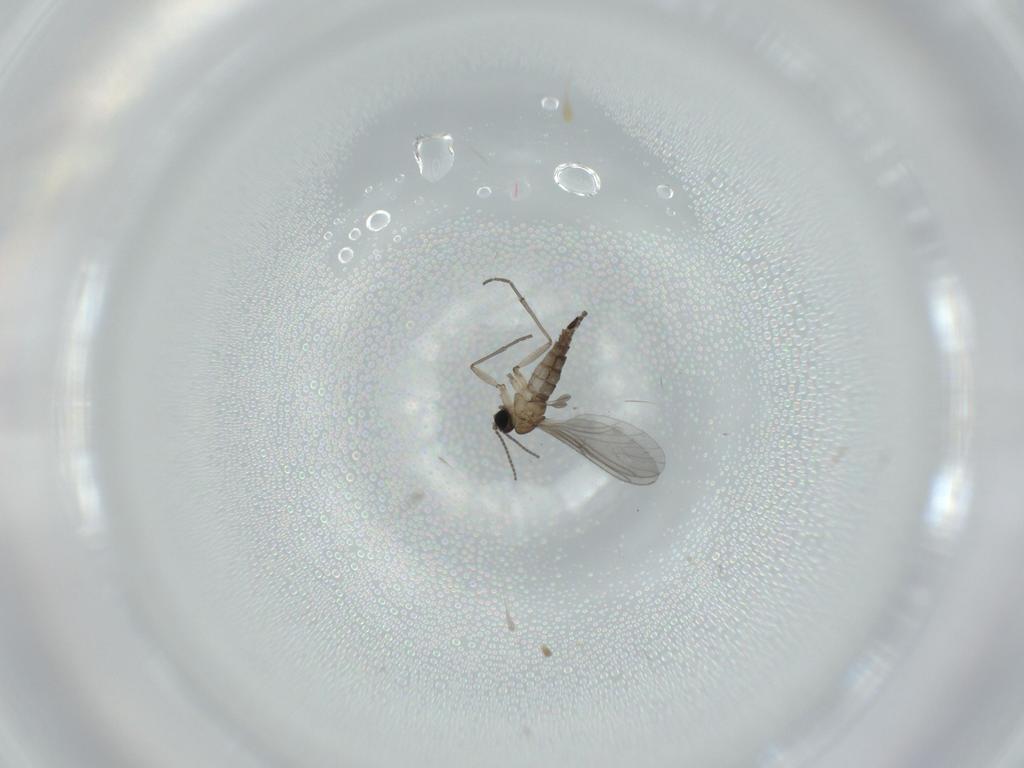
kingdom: Animalia
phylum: Arthropoda
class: Insecta
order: Diptera
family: Sciaridae
